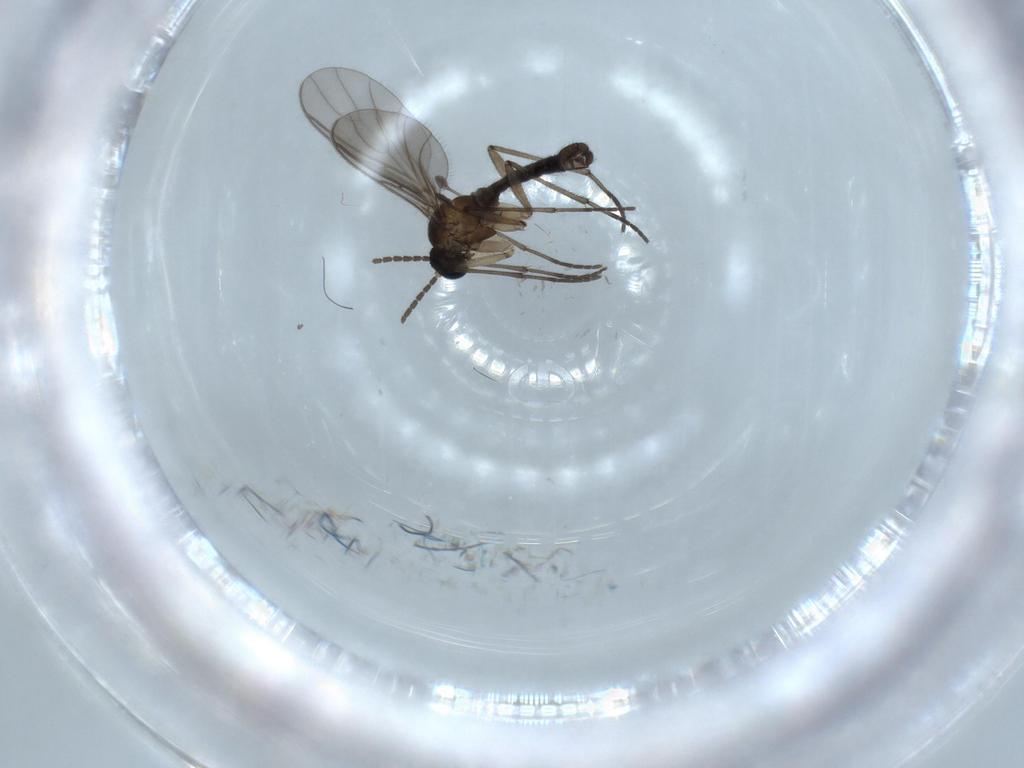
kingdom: Animalia
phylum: Arthropoda
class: Insecta
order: Diptera
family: Sciaridae
